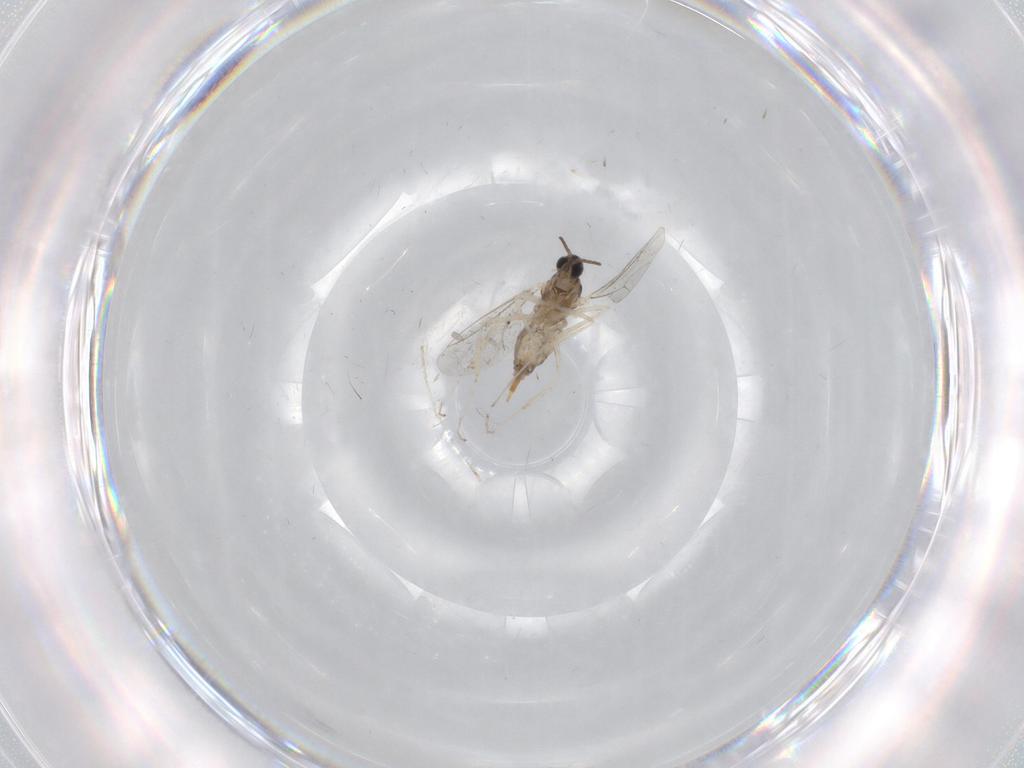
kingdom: Animalia
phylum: Arthropoda
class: Insecta
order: Diptera
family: Cecidomyiidae
